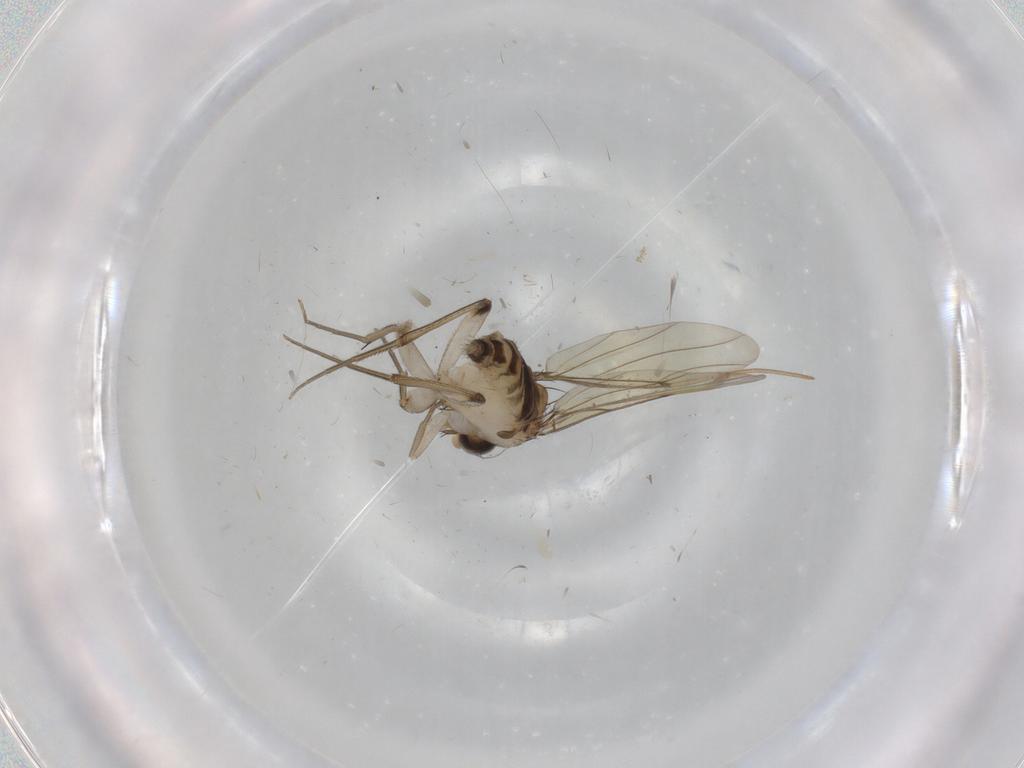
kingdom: Animalia
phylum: Arthropoda
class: Insecta
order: Diptera
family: Phoridae
